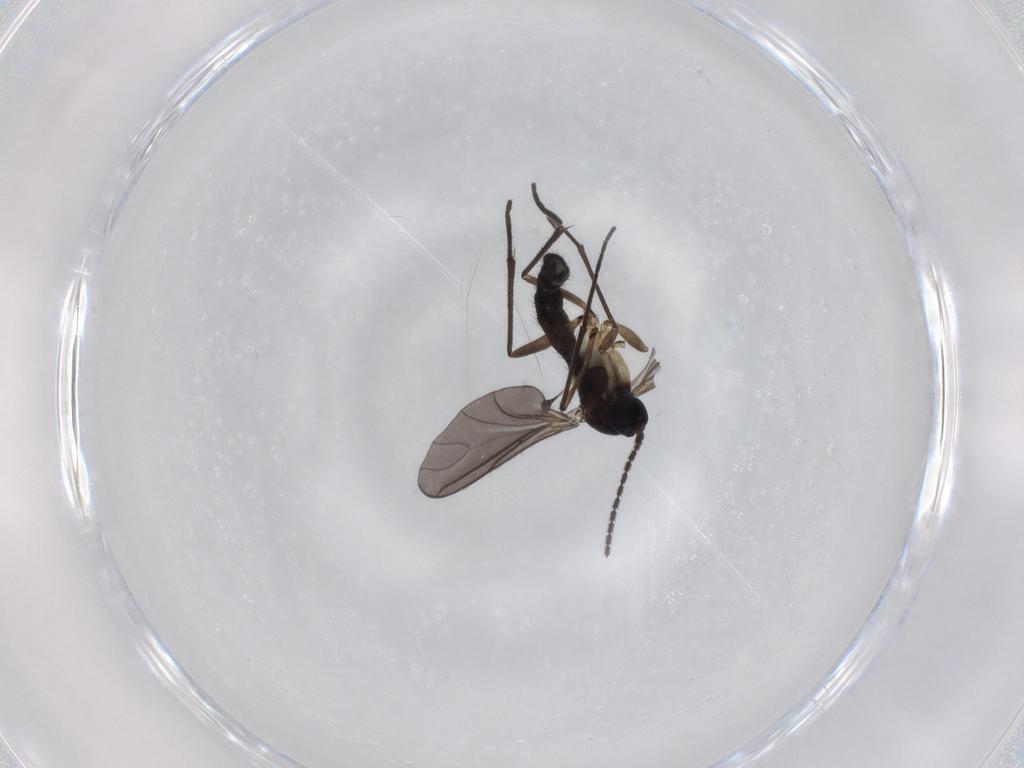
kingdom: Animalia
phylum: Arthropoda
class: Insecta
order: Diptera
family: Sciaridae
